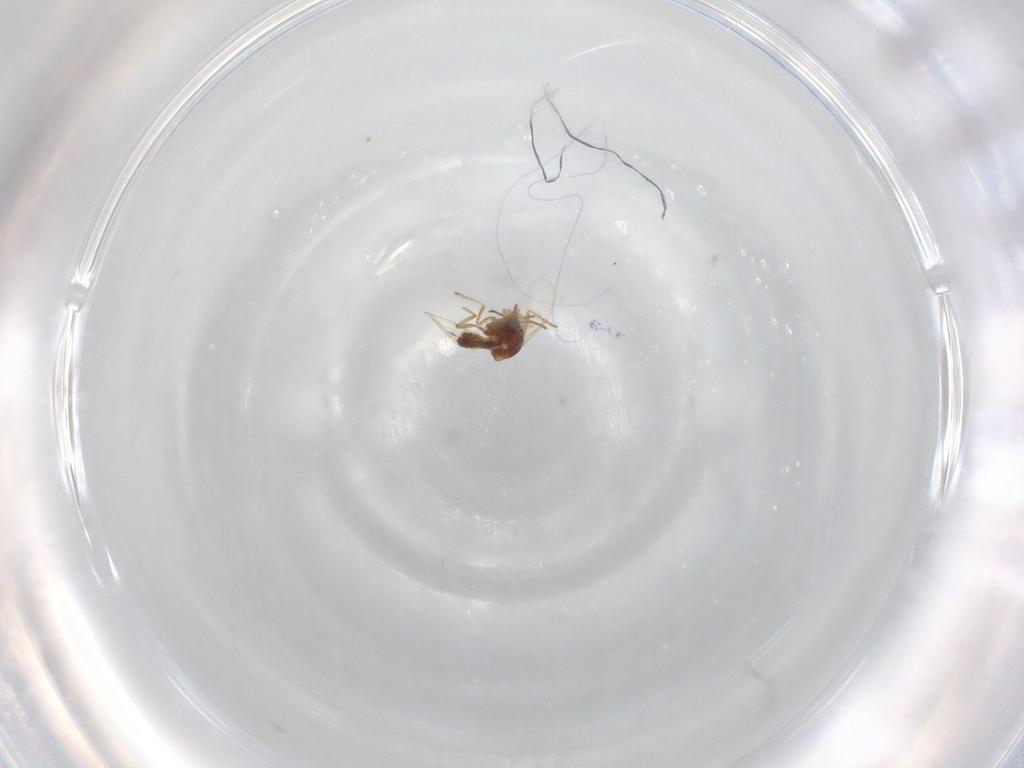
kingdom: Animalia
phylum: Arthropoda
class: Insecta
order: Diptera
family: Dolichopodidae
